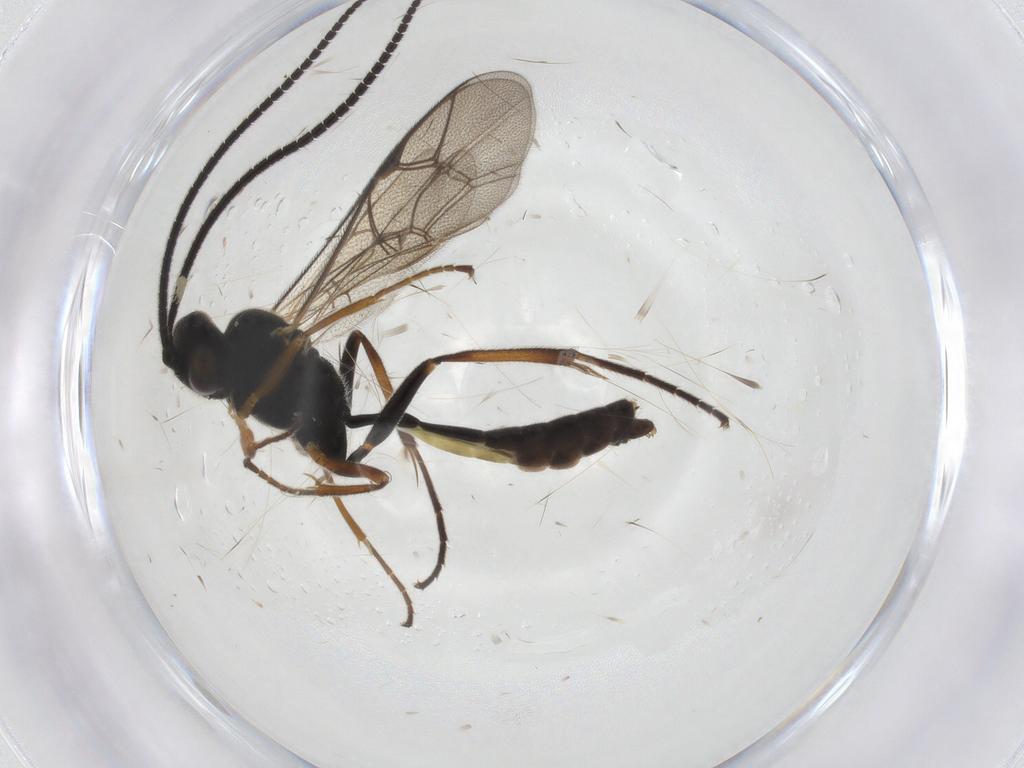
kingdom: Animalia
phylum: Arthropoda
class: Insecta
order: Hymenoptera
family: Ichneumonidae
